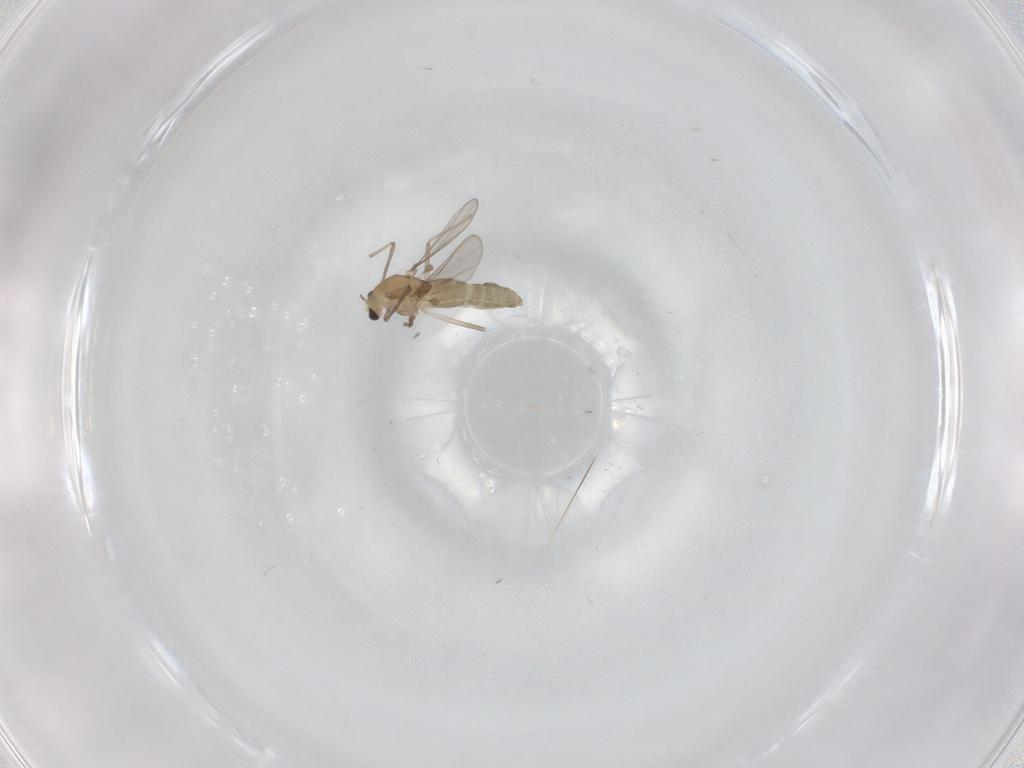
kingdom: Animalia
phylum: Arthropoda
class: Insecta
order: Diptera
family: Chironomidae
